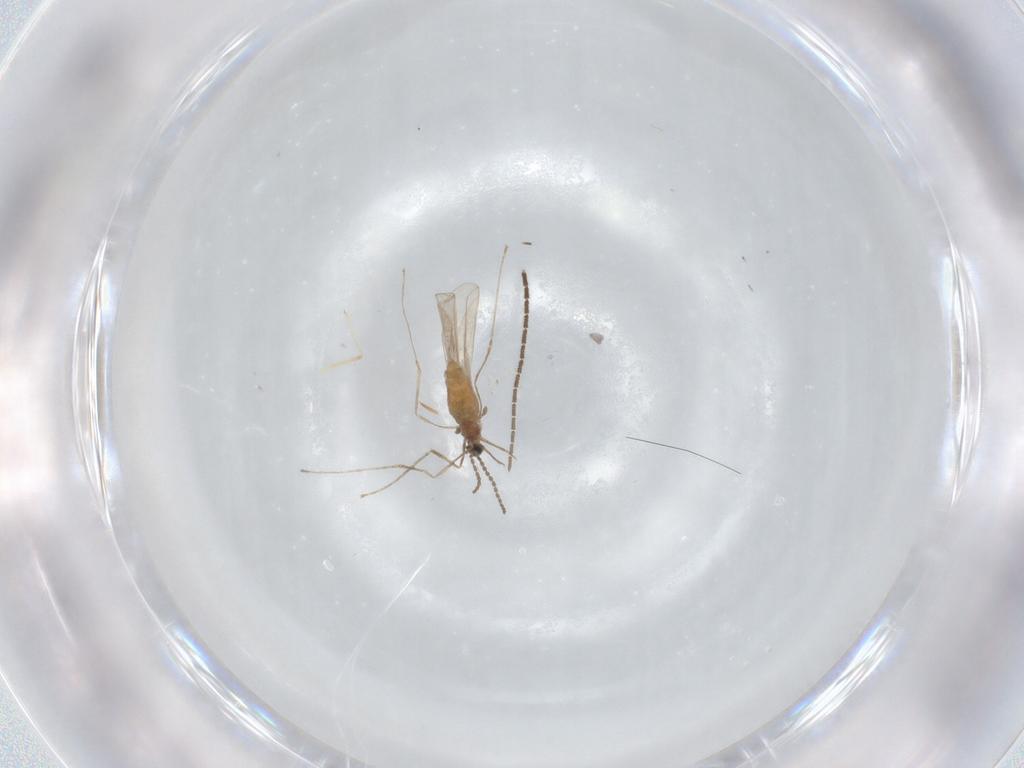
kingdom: Animalia
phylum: Arthropoda
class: Insecta
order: Diptera
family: Sciaridae
